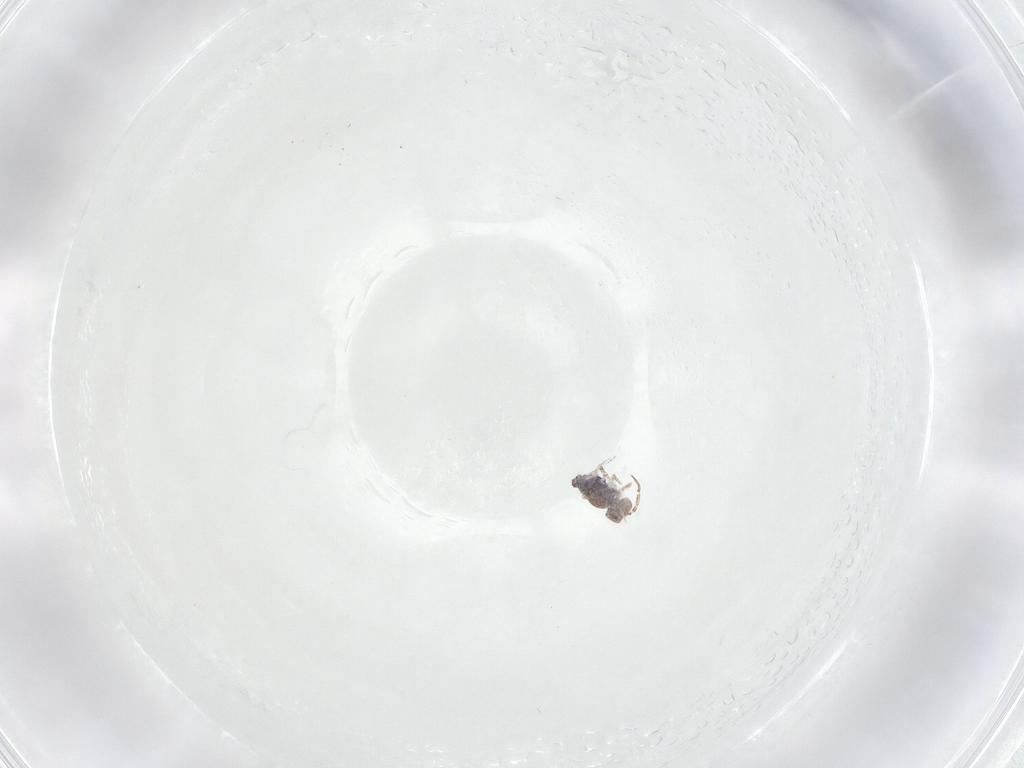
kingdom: Animalia
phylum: Arthropoda
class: Collembola
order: Symphypleona
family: Bourletiellidae
